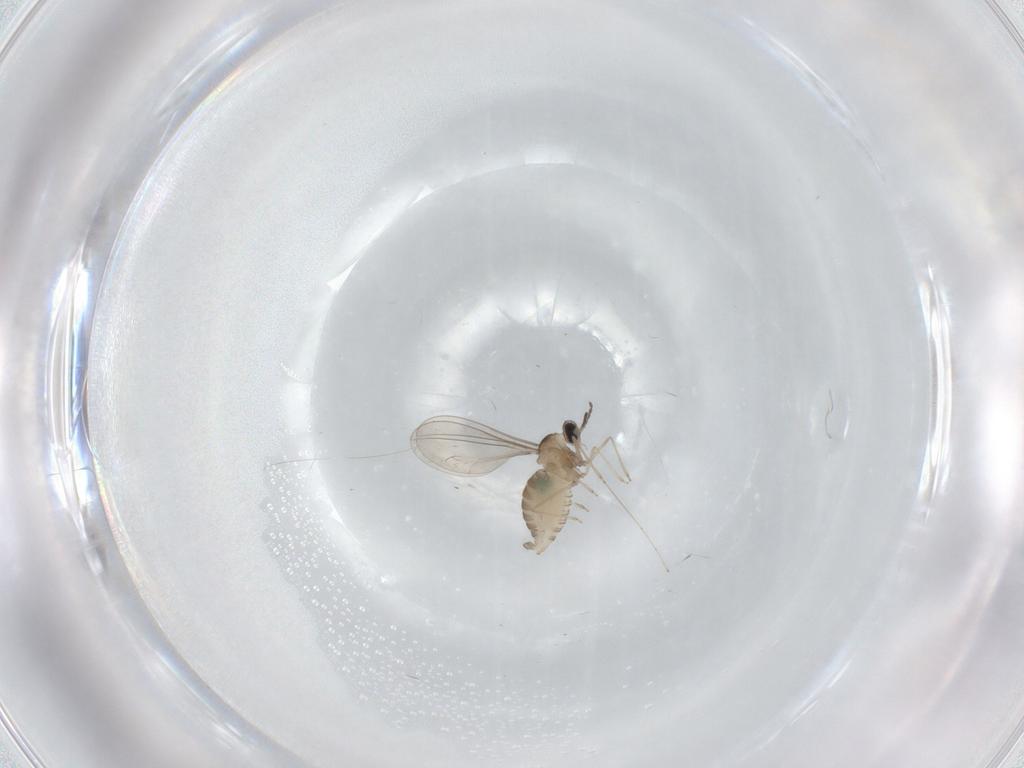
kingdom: Animalia
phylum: Arthropoda
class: Insecta
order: Diptera
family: Cecidomyiidae
